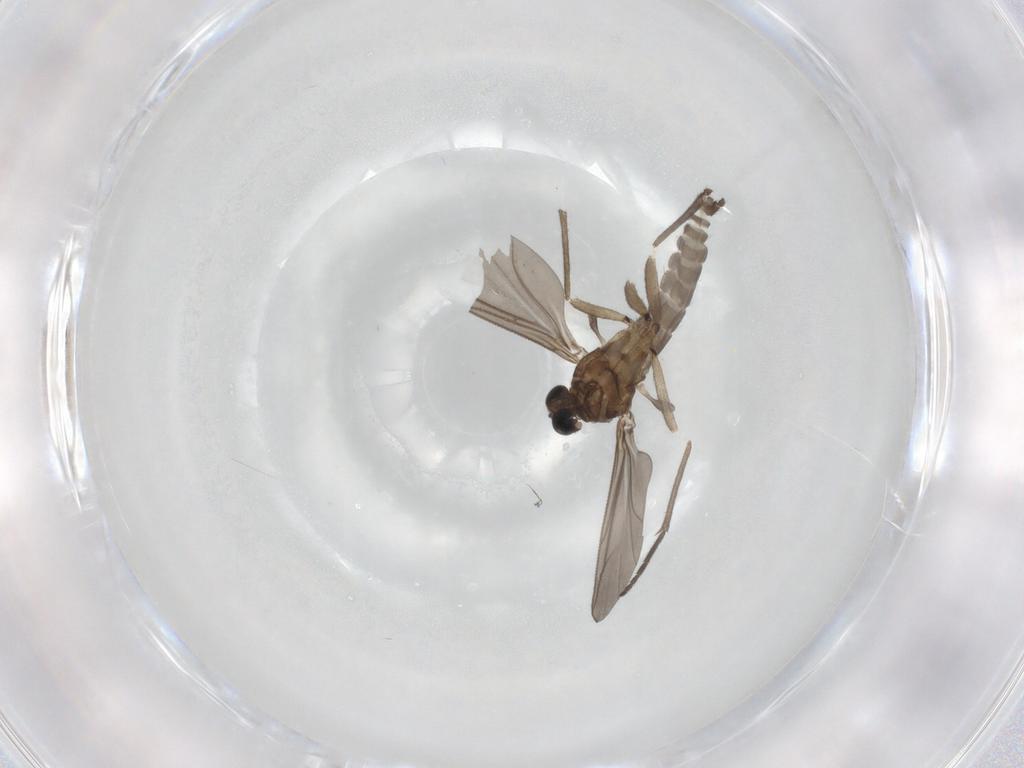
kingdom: Animalia
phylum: Arthropoda
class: Insecta
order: Diptera
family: Sciaridae
